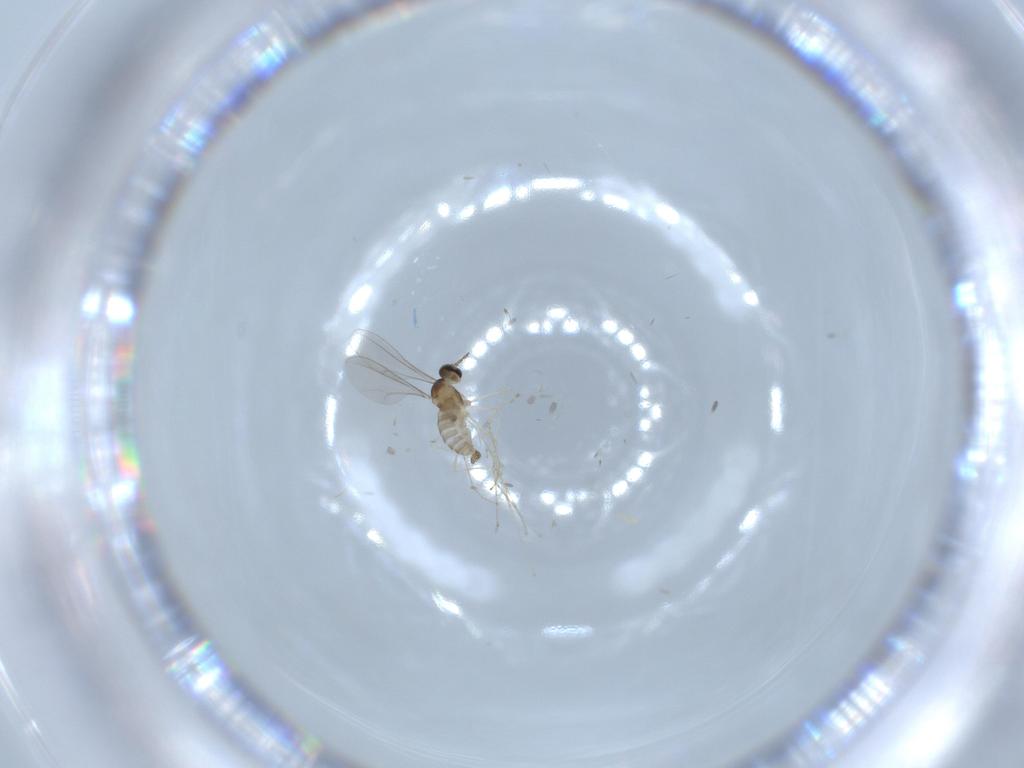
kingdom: Animalia
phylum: Arthropoda
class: Insecta
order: Diptera
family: Cecidomyiidae
